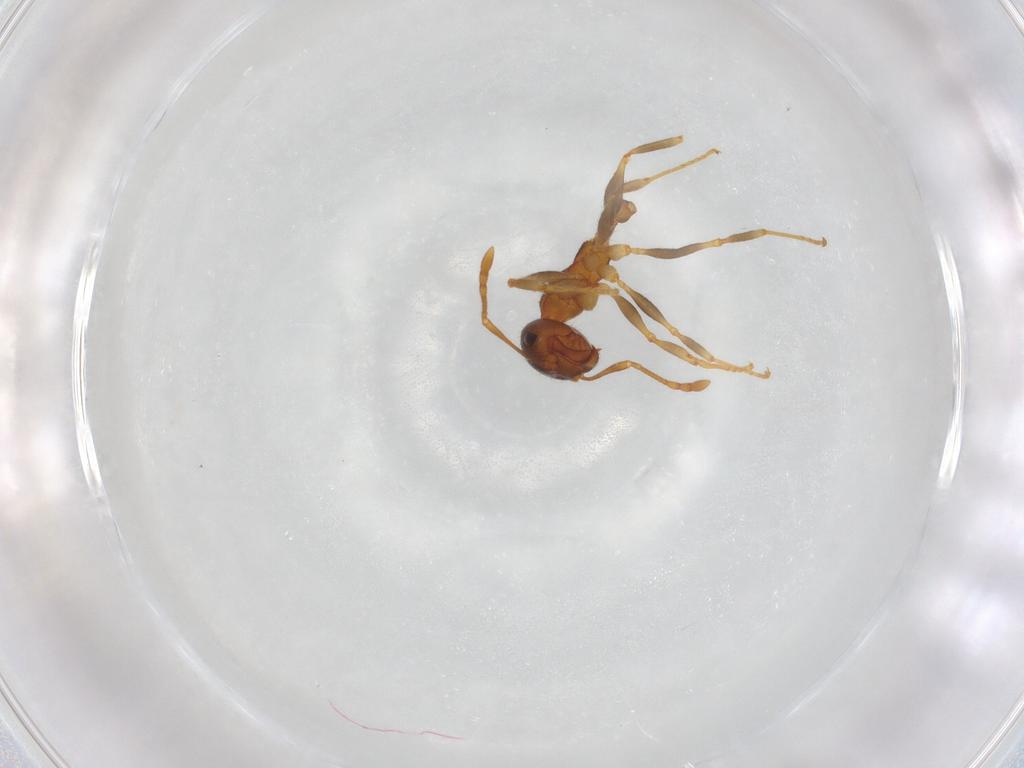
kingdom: Animalia
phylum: Arthropoda
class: Insecta
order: Hymenoptera
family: Formicidae
